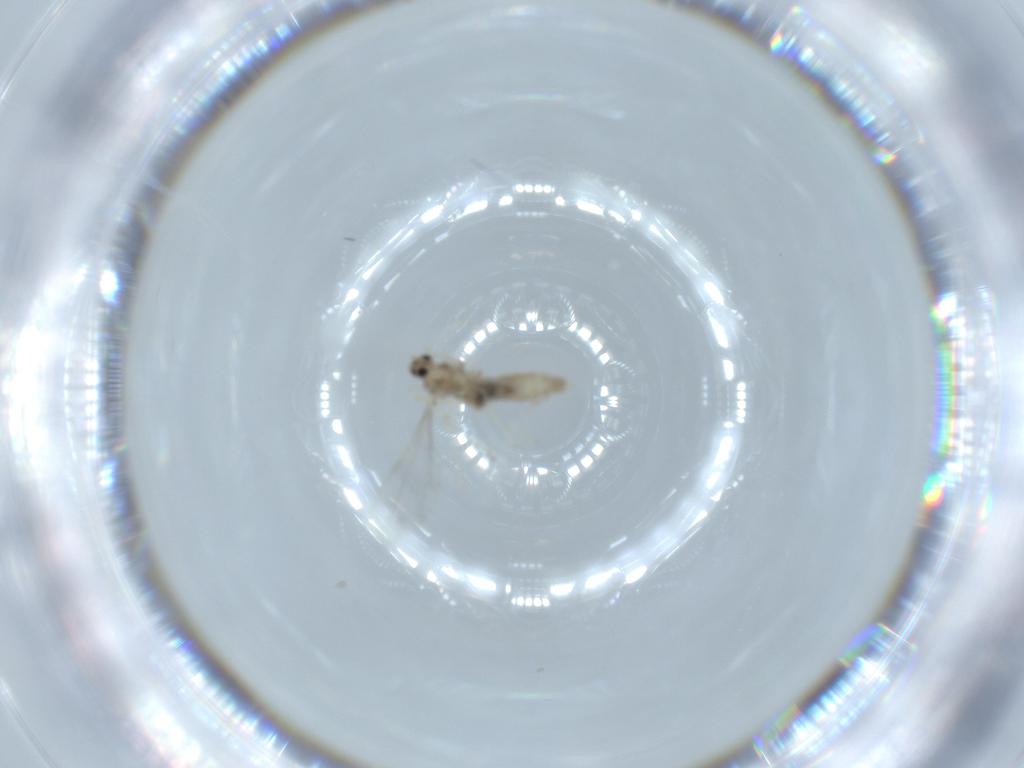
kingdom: Animalia
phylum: Arthropoda
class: Insecta
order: Diptera
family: Cecidomyiidae
